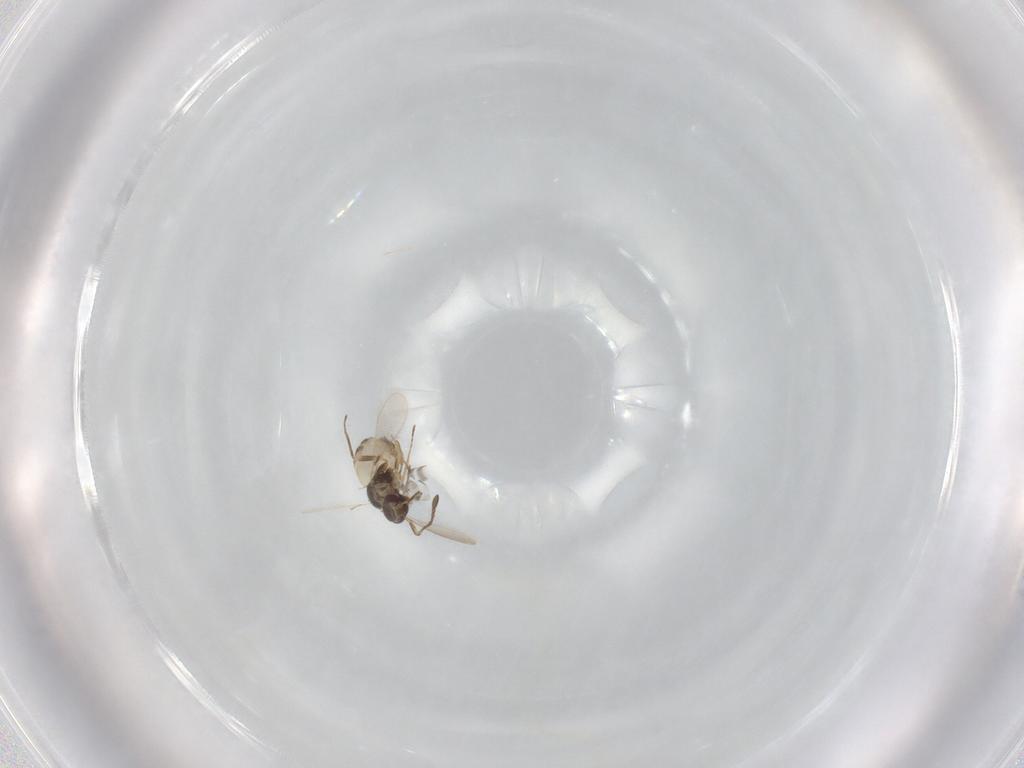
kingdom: Animalia
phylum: Arthropoda
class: Insecta
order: Hymenoptera
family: Mymaridae
